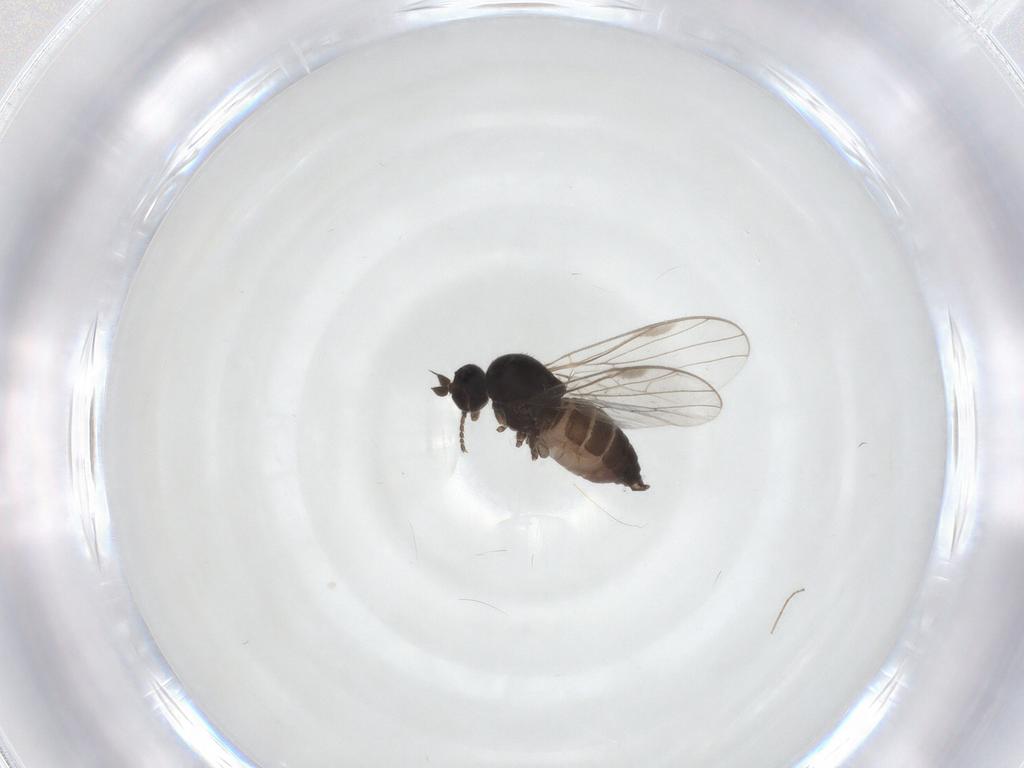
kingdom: Animalia
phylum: Arthropoda
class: Insecta
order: Diptera
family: Hybotidae
